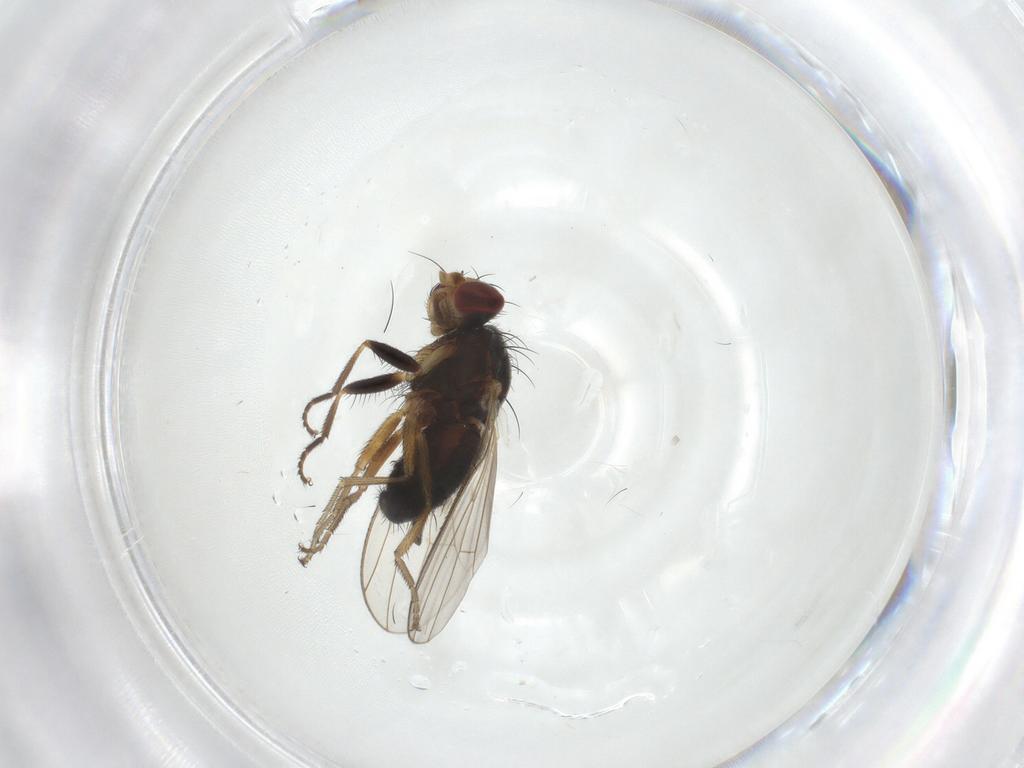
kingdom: Animalia
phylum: Arthropoda
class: Insecta
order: Diptera
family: Heleomyzidae
